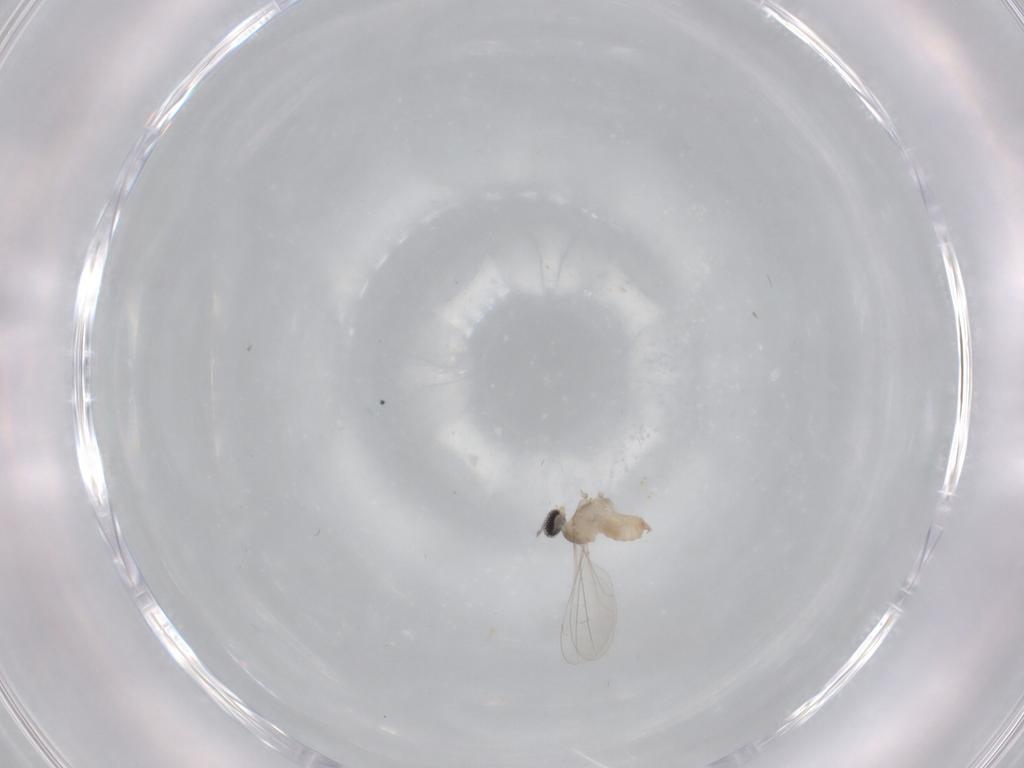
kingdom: Animalia
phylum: Arthropoda
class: Insecta
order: Diptera
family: Cecidomyiidae
